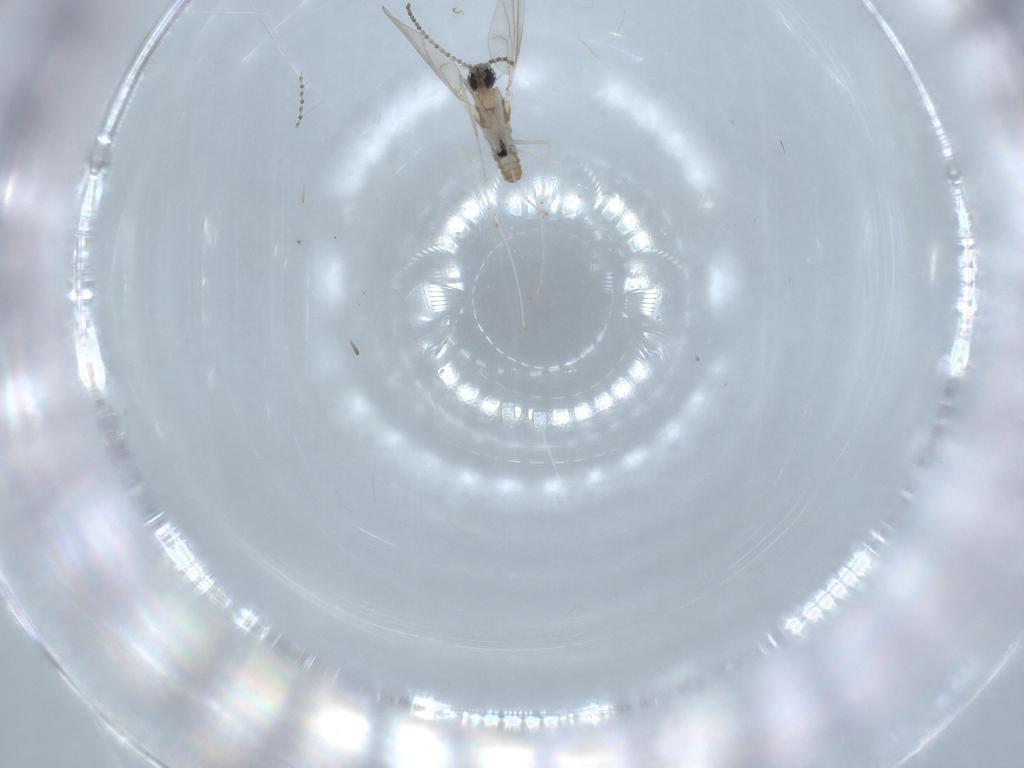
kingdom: Animalia
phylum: Arthropoda
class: Insecta
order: Diptera
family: Cecidomyiidae
